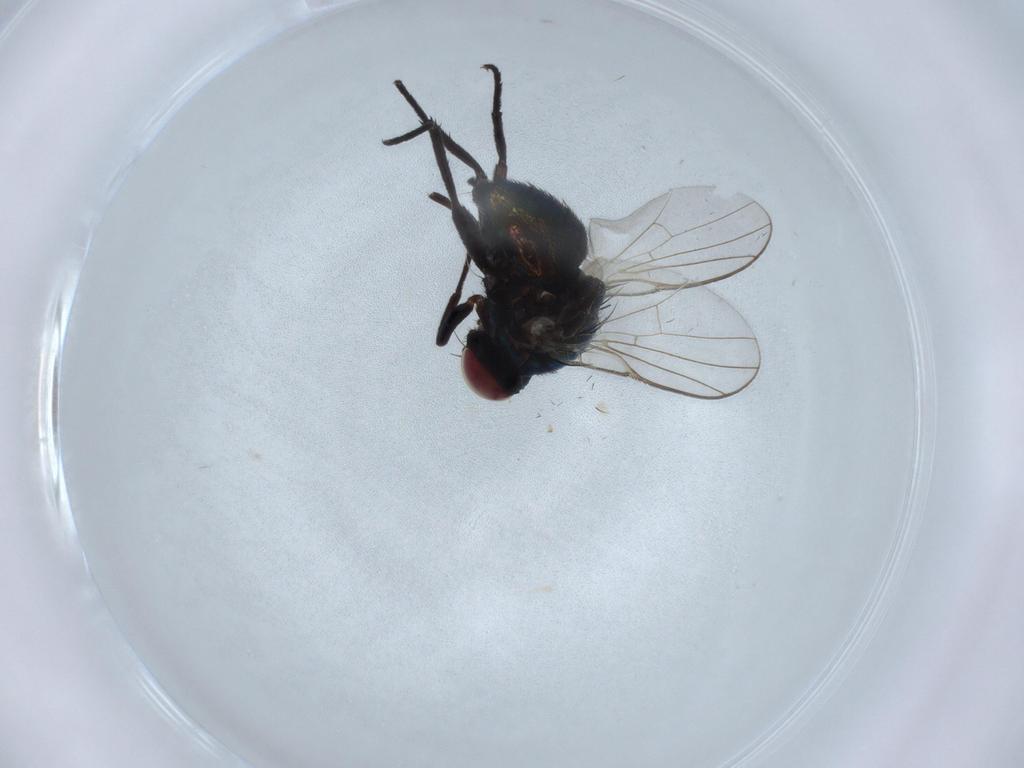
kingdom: Animalia
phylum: Arthropoda
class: Insecta
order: Diptera
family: Agromyzidae
